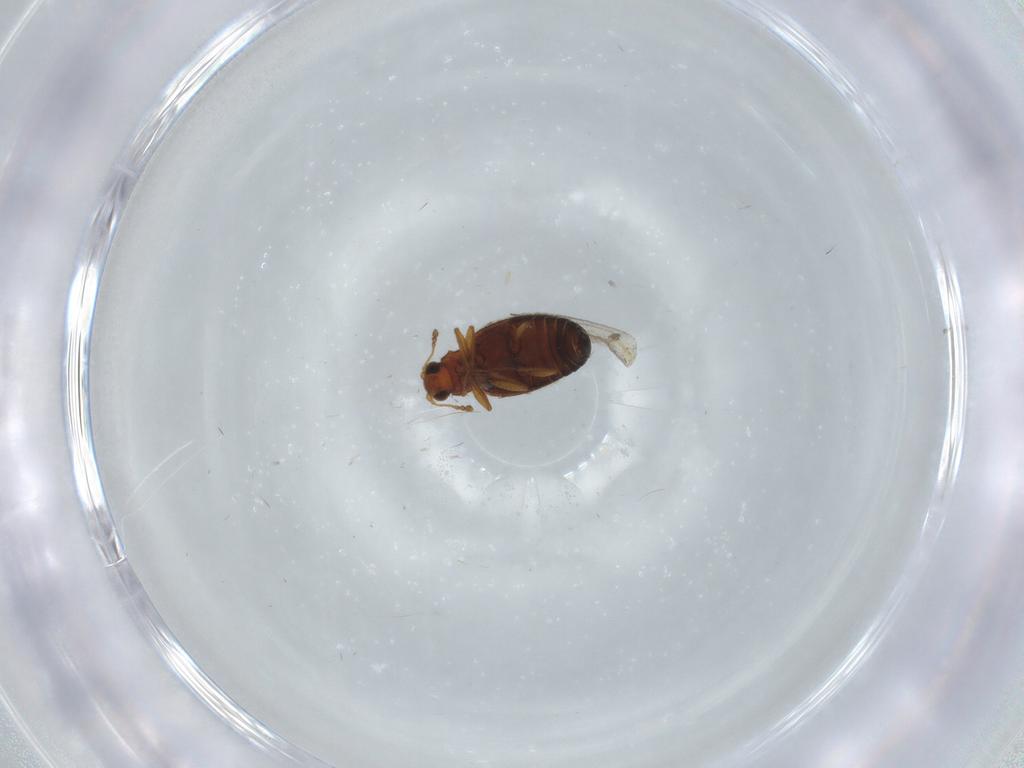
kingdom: Animalia
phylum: Arthropoda
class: Insecta
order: Coleoptera
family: Latridiidae
